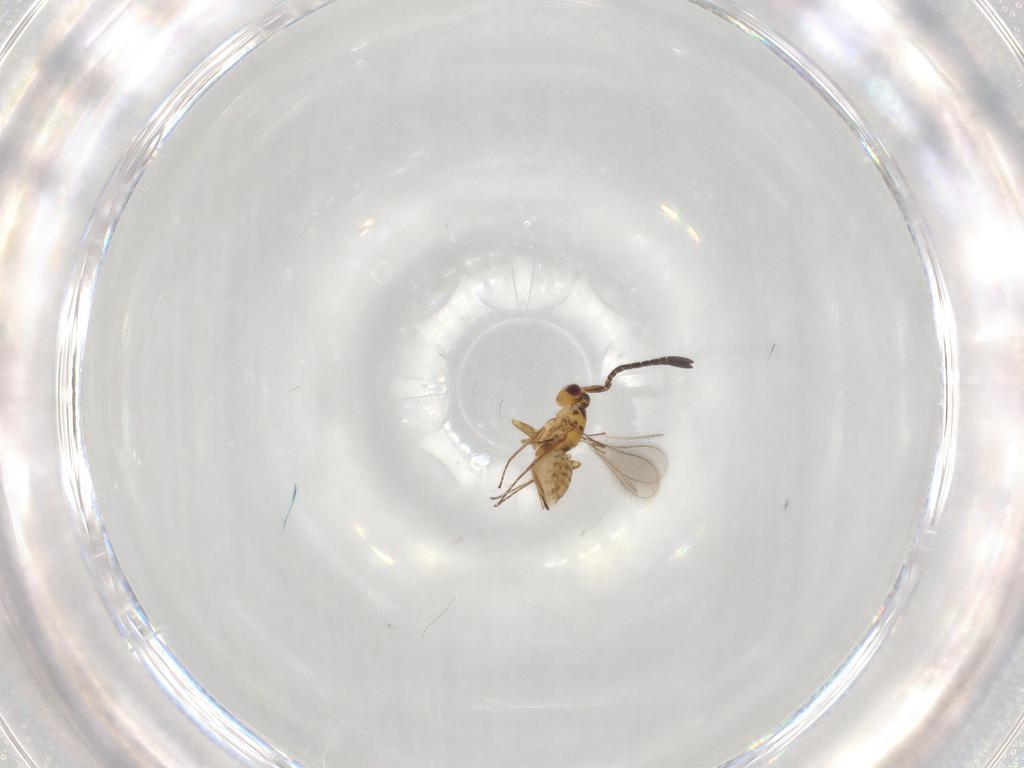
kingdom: Animalia
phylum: Arthropoda
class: Insecta
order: Hymenoptera
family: Mymaridae
